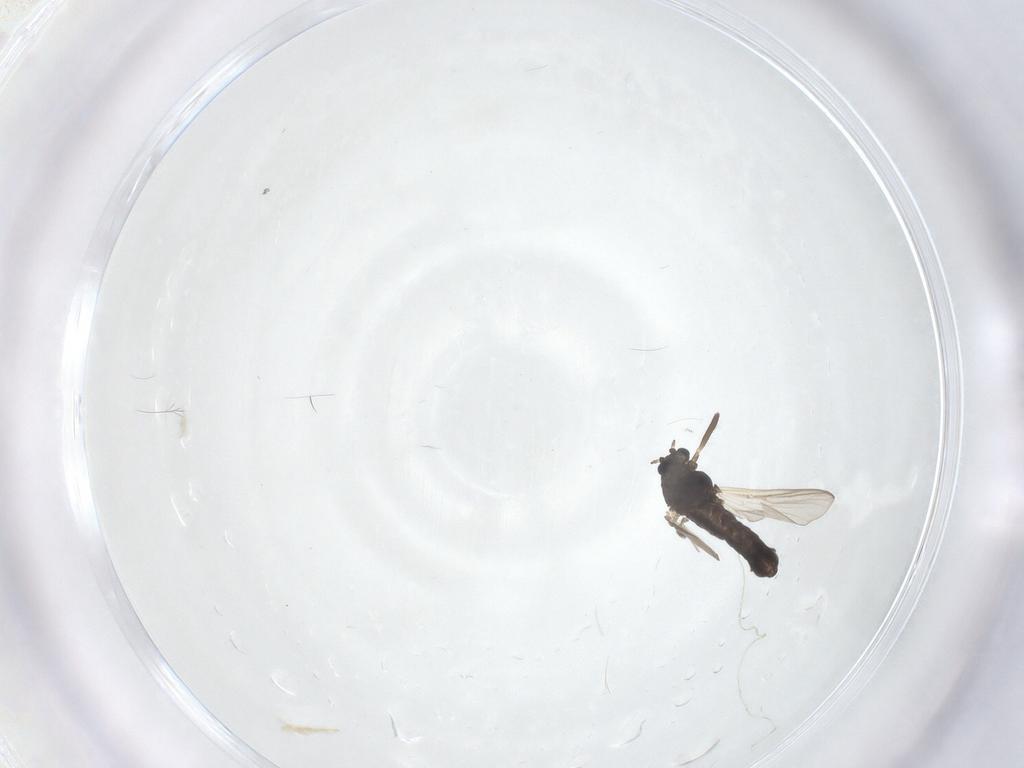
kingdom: Animalia
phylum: Arthropoda
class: Insecta
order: Diptera
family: Chironomidae
